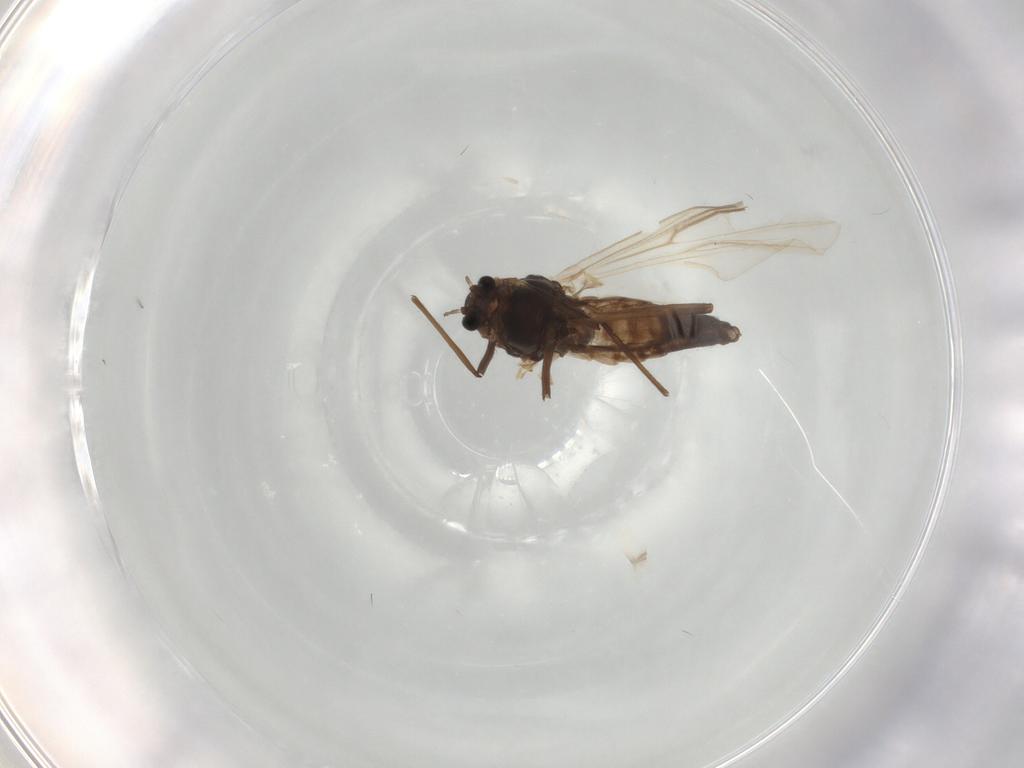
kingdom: Animalia
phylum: Arthropoda
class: Insecta
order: Diptera
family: Chironomidae
